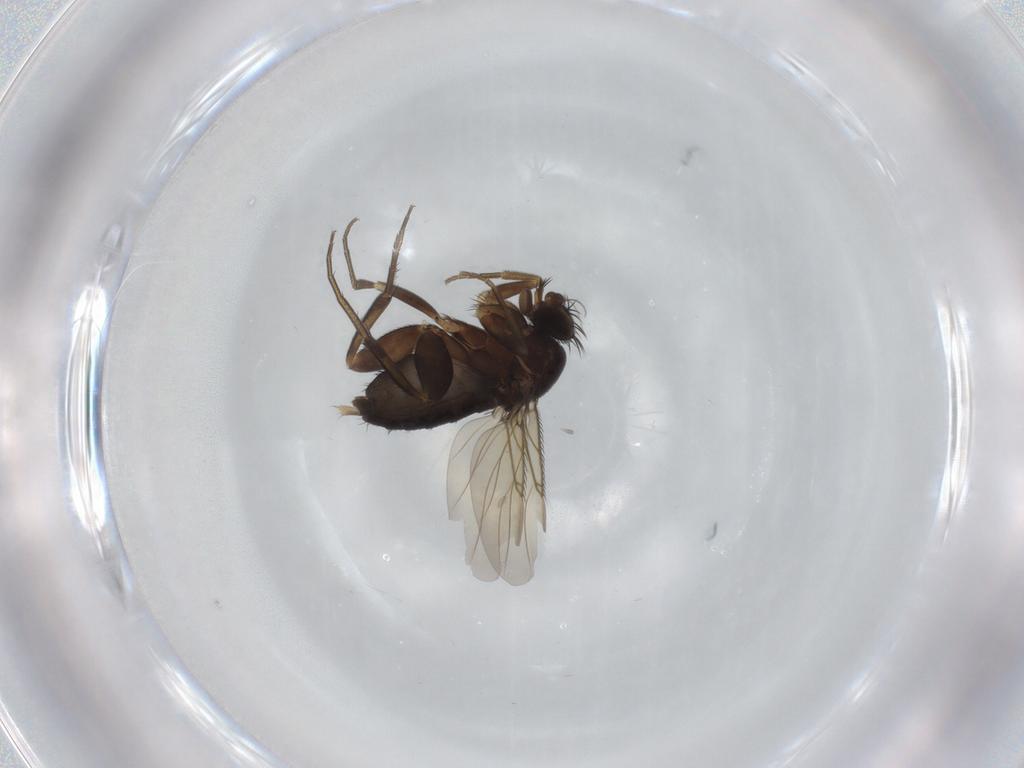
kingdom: Animalia
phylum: Arthropoda
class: Insecta
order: Diptera
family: Phoridae
